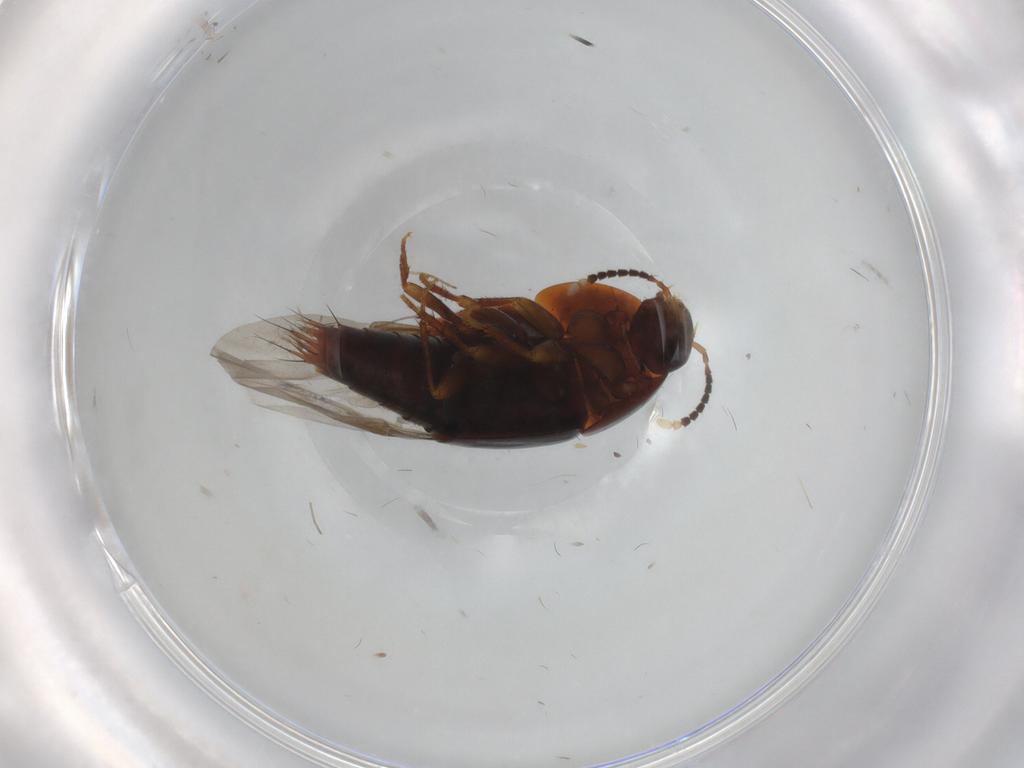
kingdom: Animalia
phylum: Arthropoda
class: Insecta
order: Coleoptera
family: Staphylinidae
